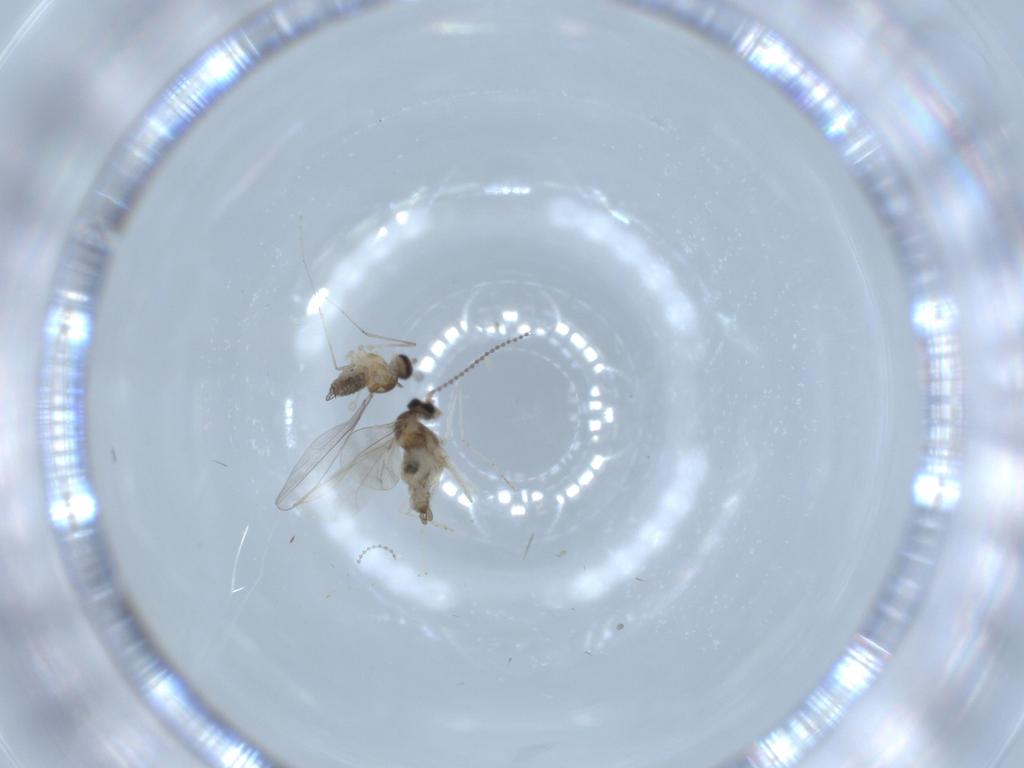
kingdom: Animalia
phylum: Arthropoda
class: Insecta
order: Diptera
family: Cecidomyiidae
